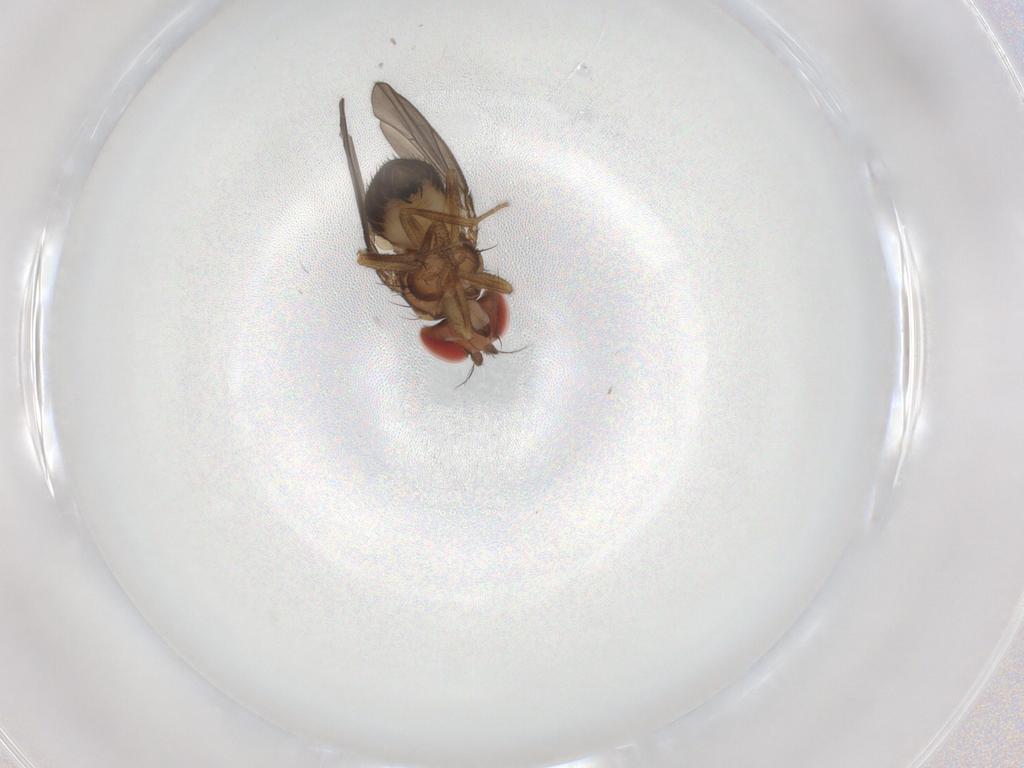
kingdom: Animalia
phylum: Arthropoda
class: Insecta
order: Diptera
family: Drosophilidae
